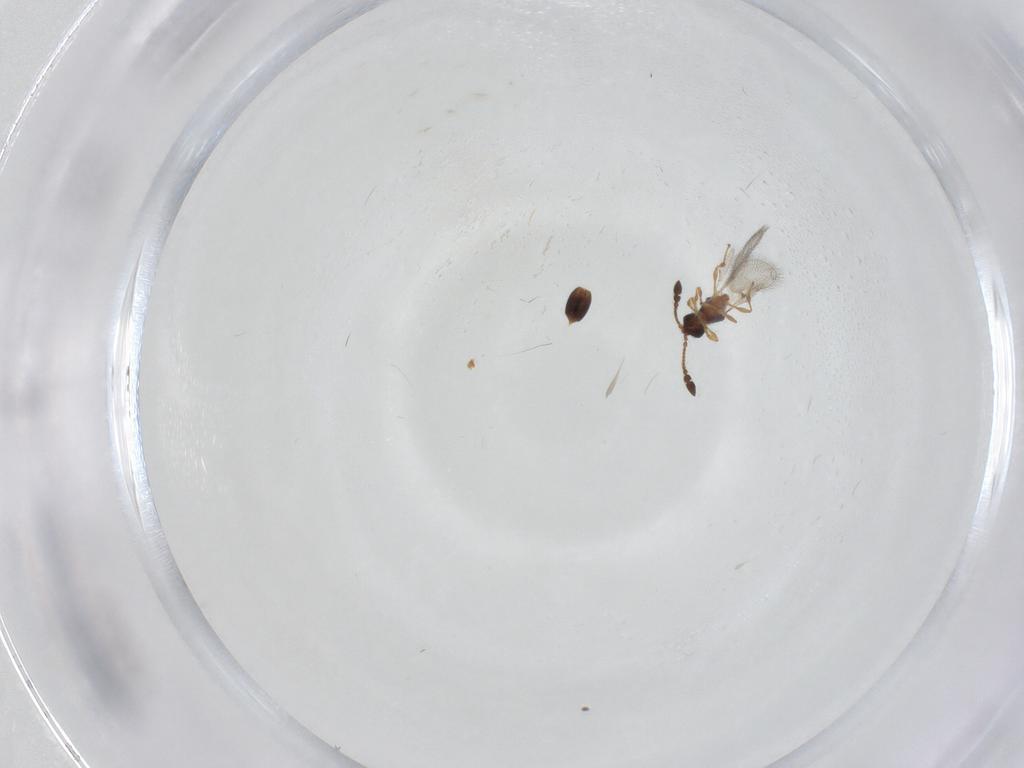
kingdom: Animalia
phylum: Arthropoda
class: Insecta
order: Hymenoptera
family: Diapriidae
